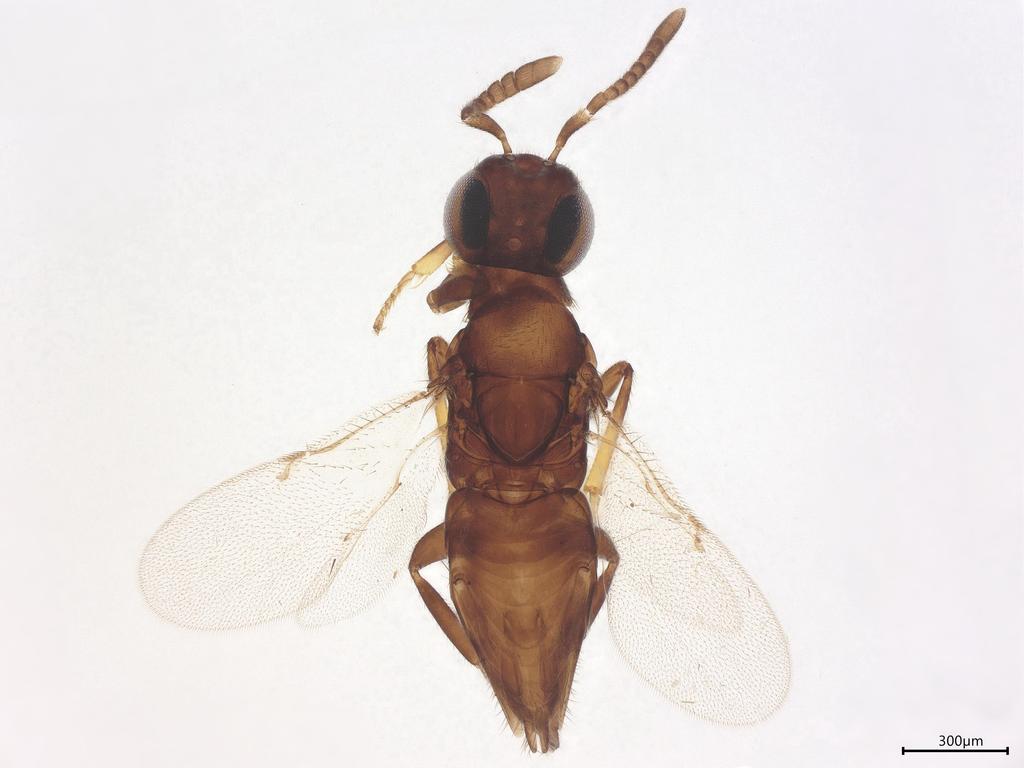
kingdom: Animalia
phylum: Arthropoda
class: Insecta
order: Hymenoptera
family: Encyrtidae
